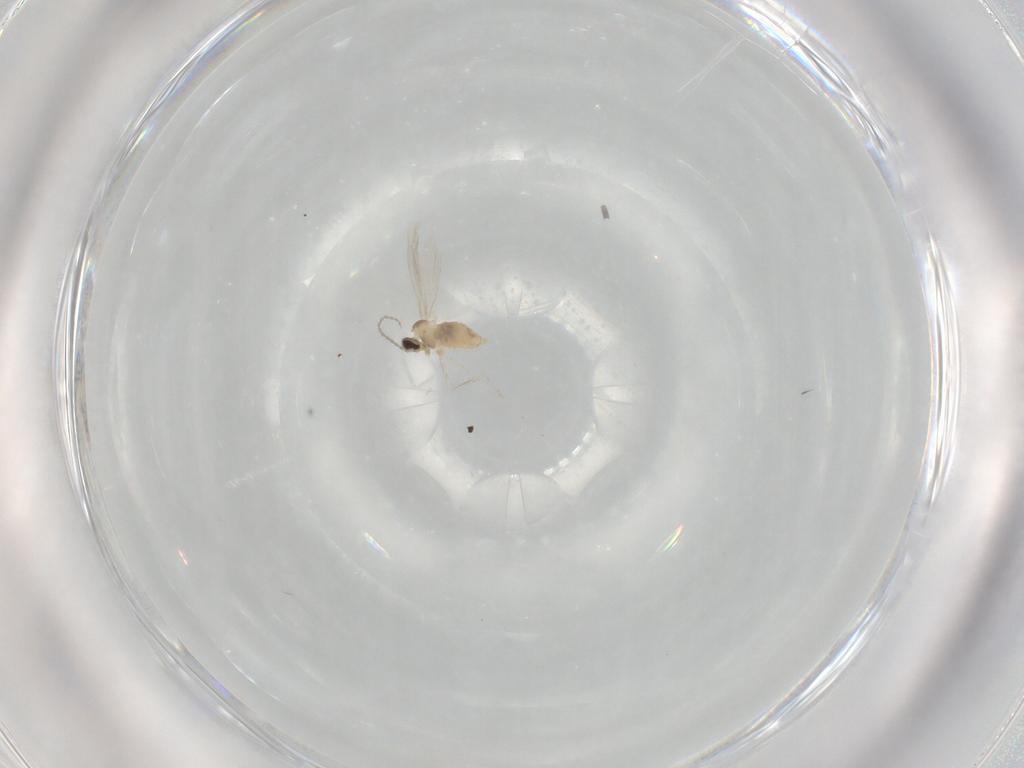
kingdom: Animalia
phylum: Arthropoda
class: Insecta
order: Diptera
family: Cecidomyiidae
